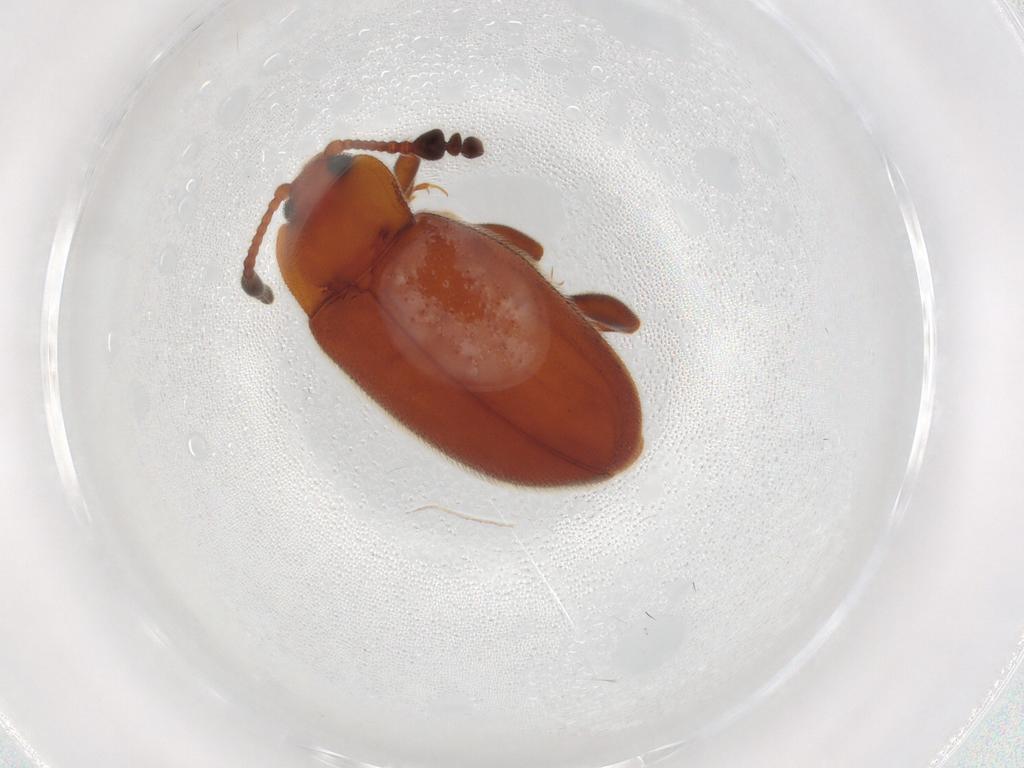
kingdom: Animalia
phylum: Arthropoda
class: Insecta
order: Coleoptera
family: Endomychidae
